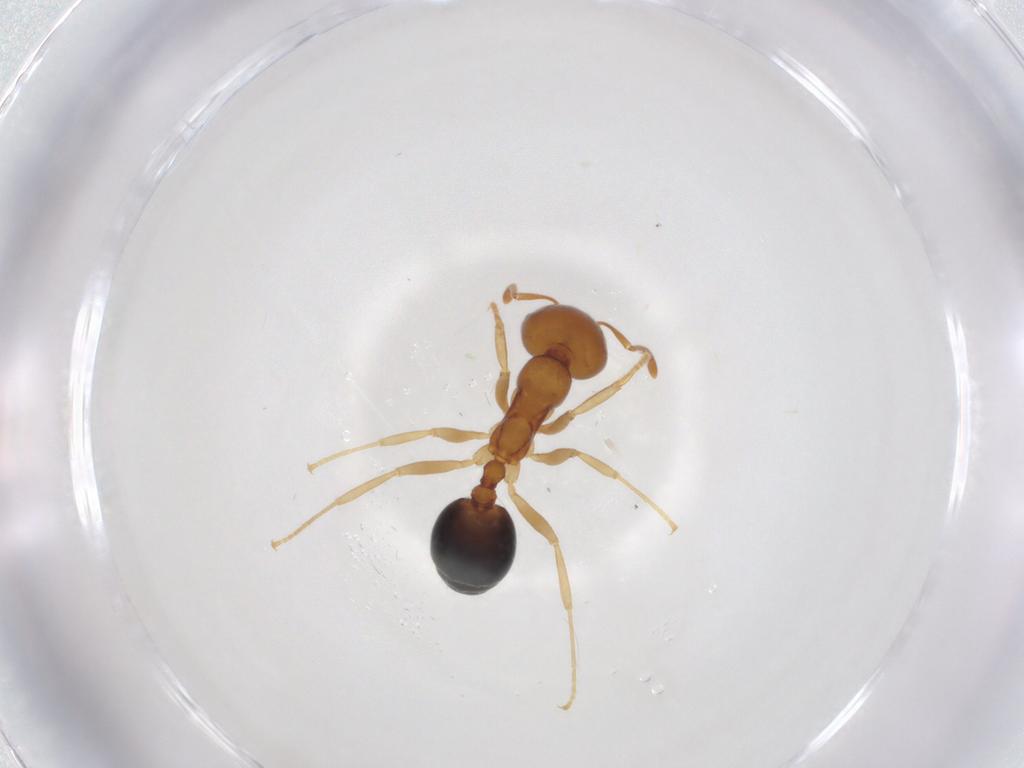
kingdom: Animalia
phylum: Arthropoda
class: Insecta
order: Hymenoptera
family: Formicidae
